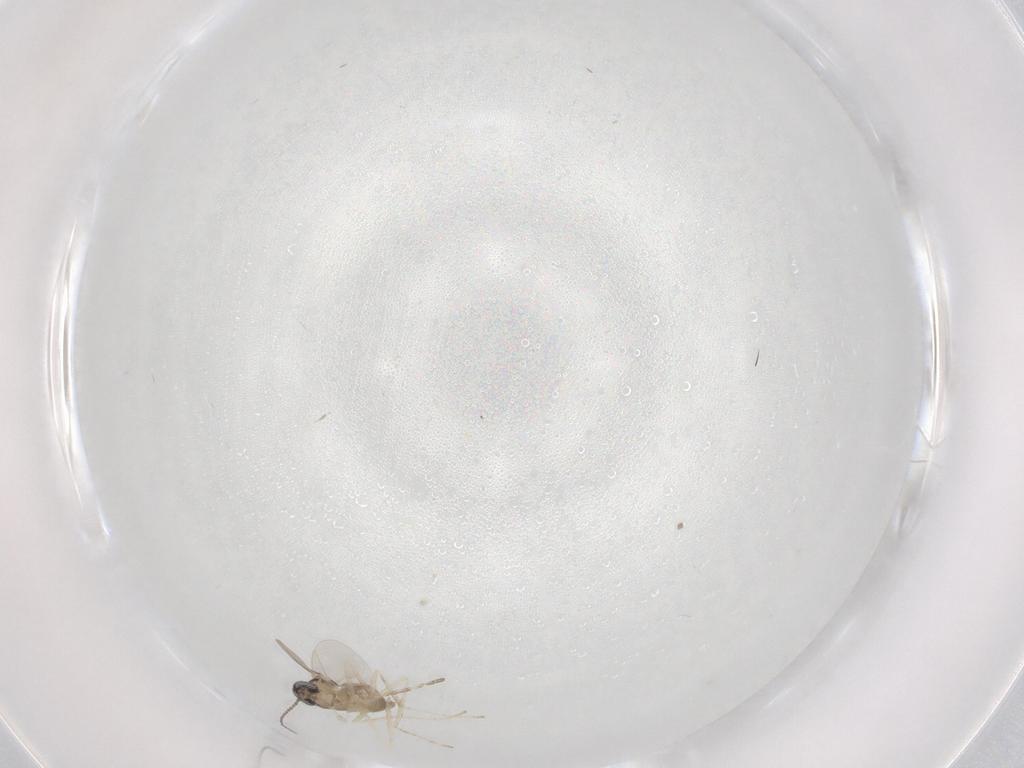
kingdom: Animalia
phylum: Arthropoda
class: Insecta
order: Diptera
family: Cecidomyiidae
